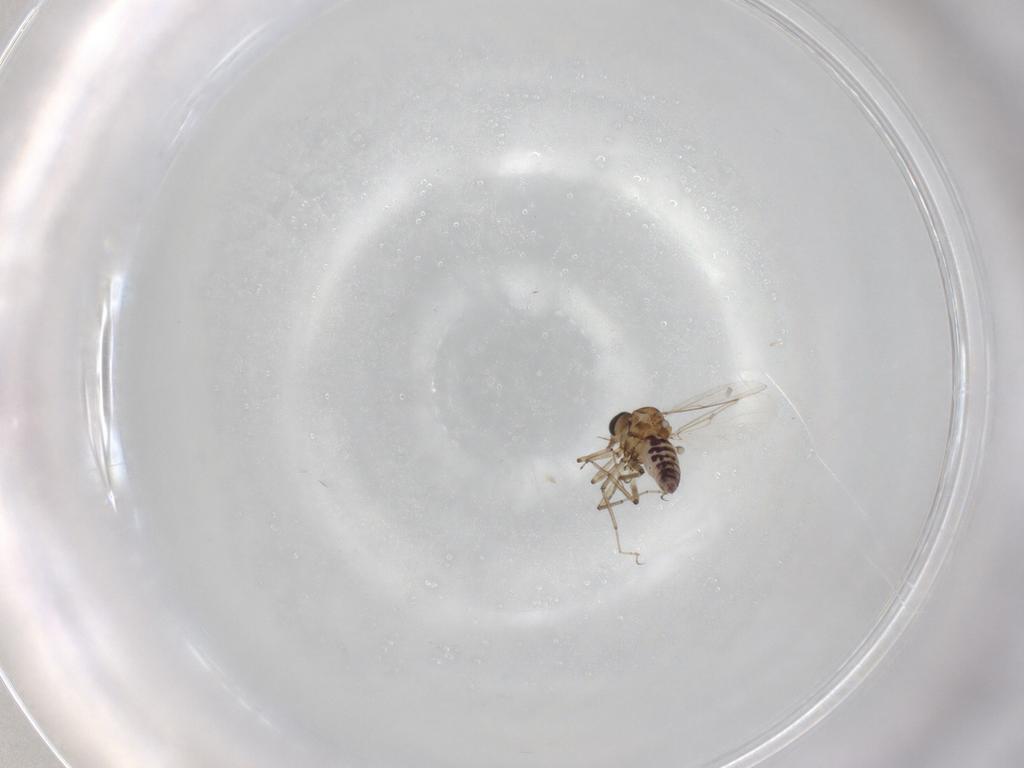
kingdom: Animalia
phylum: Arthropoda
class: Insecta
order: Diptera
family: Ceratopogonidae
